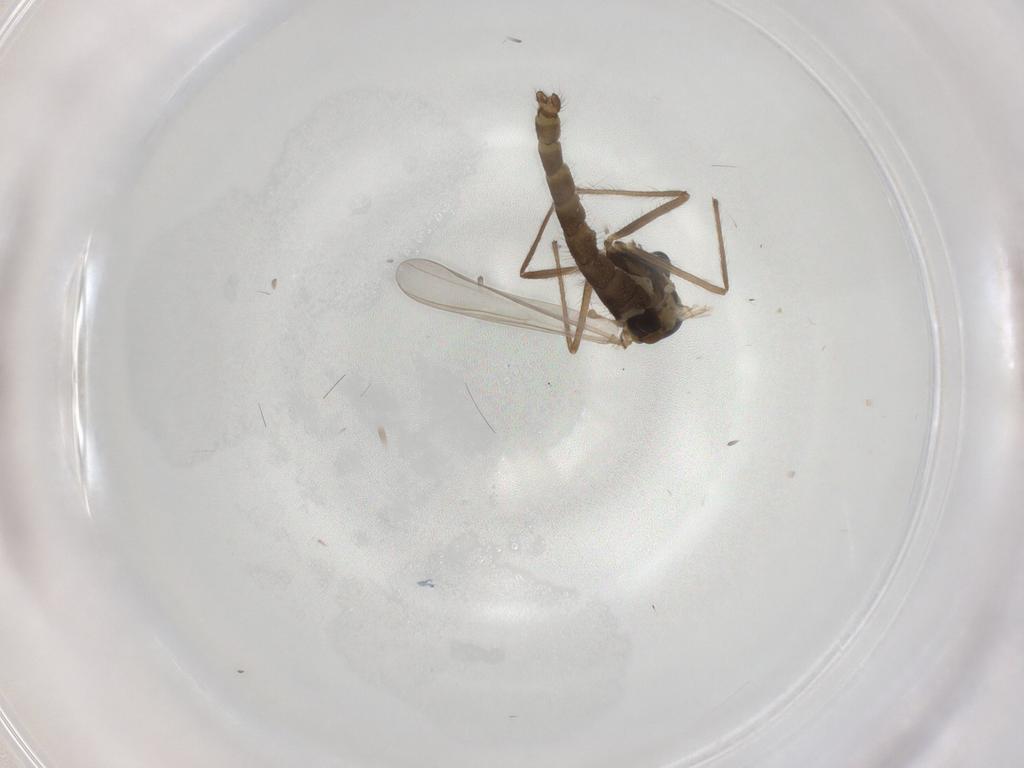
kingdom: Animalia
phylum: Arthropoda
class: Insecta
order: Diptera
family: Chironomidae
